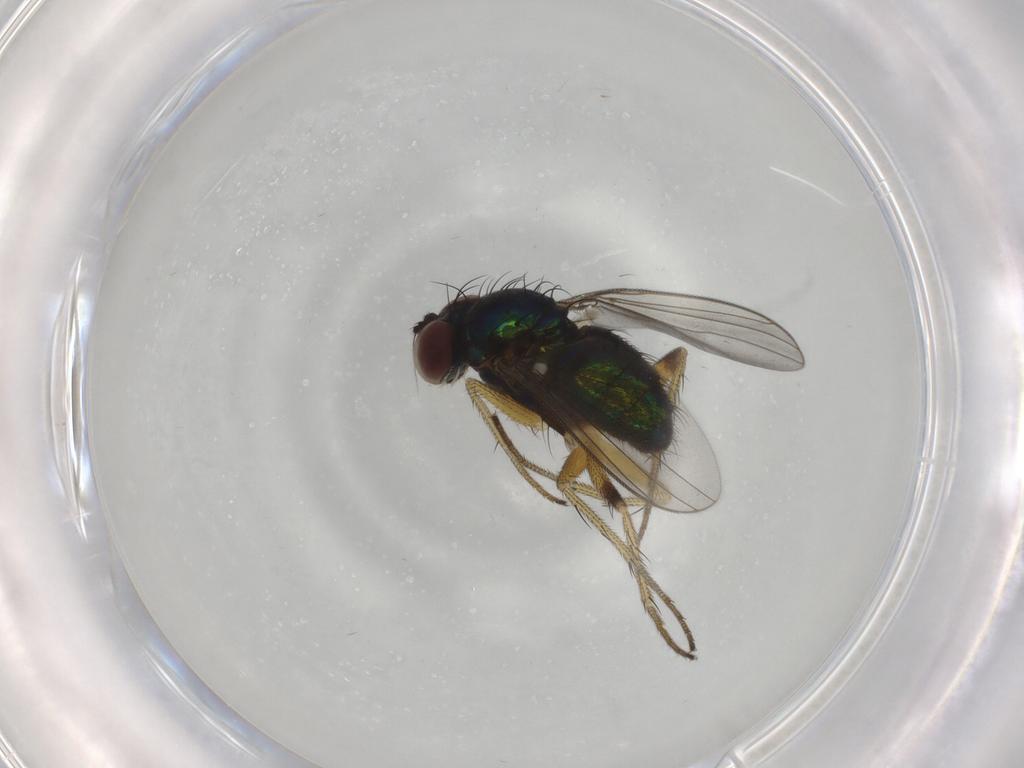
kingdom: Animalia
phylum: Arthropoda
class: Insecta
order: Diptera
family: Dolichopodidae
